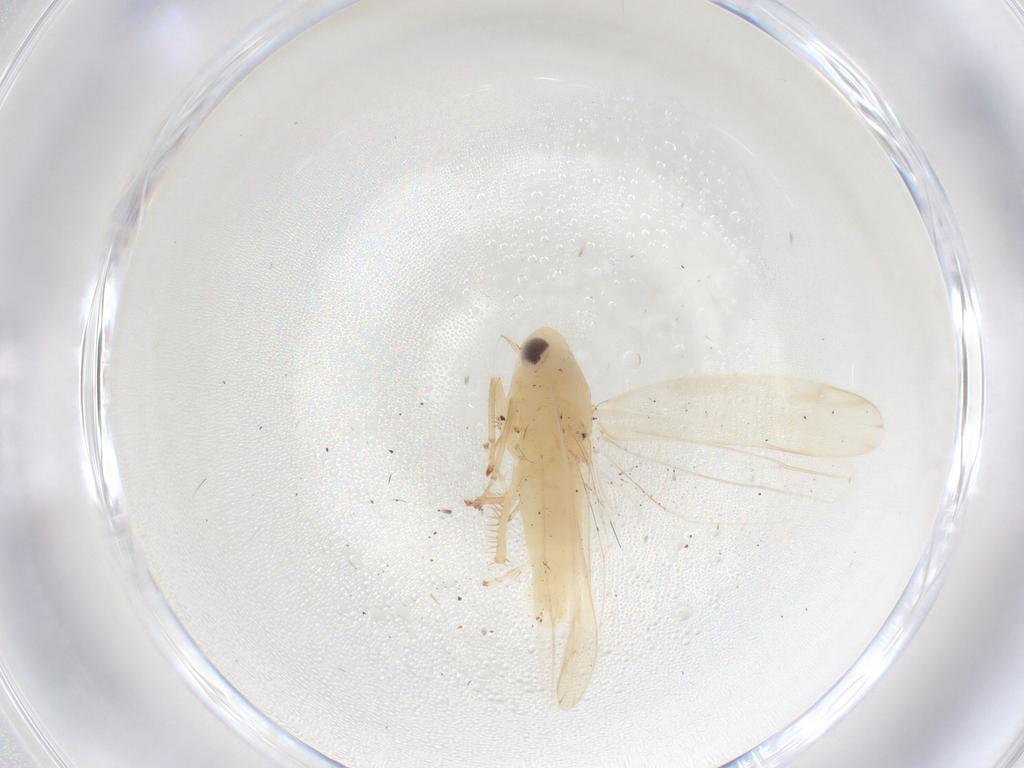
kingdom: Animalia
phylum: Arthropoda
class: Insecta
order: Hemiptera
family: Cicadellidae
